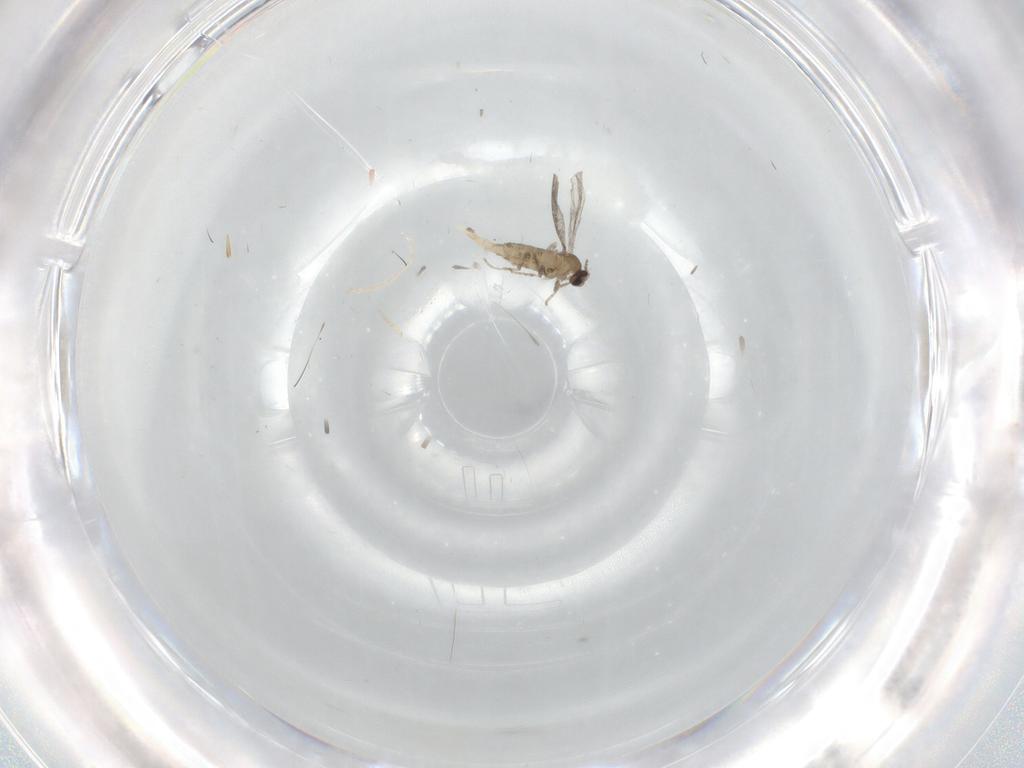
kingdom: Animalia
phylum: Arthropoda
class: Insecta
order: Diptera
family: Cecidomyiidae
